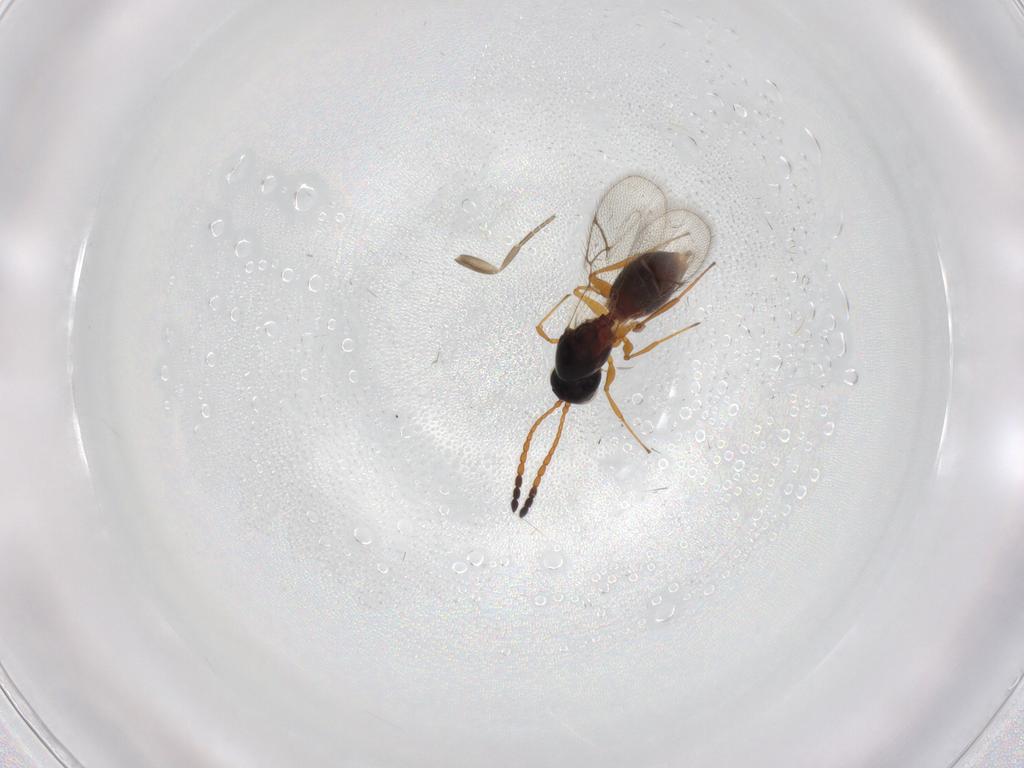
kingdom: Animalia
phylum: Arthropoda
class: Insecta
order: Hymenoptera
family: Figitidae
